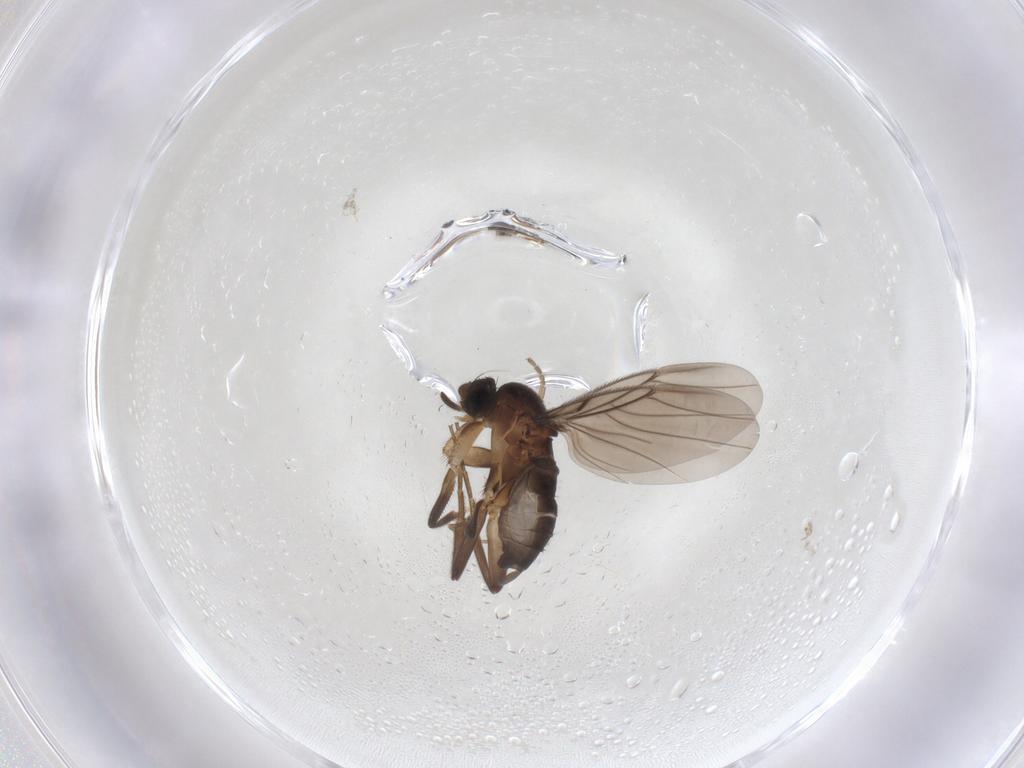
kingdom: Animalia
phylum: Arthropoda
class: Insecta
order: Diptera
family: Phoridae
